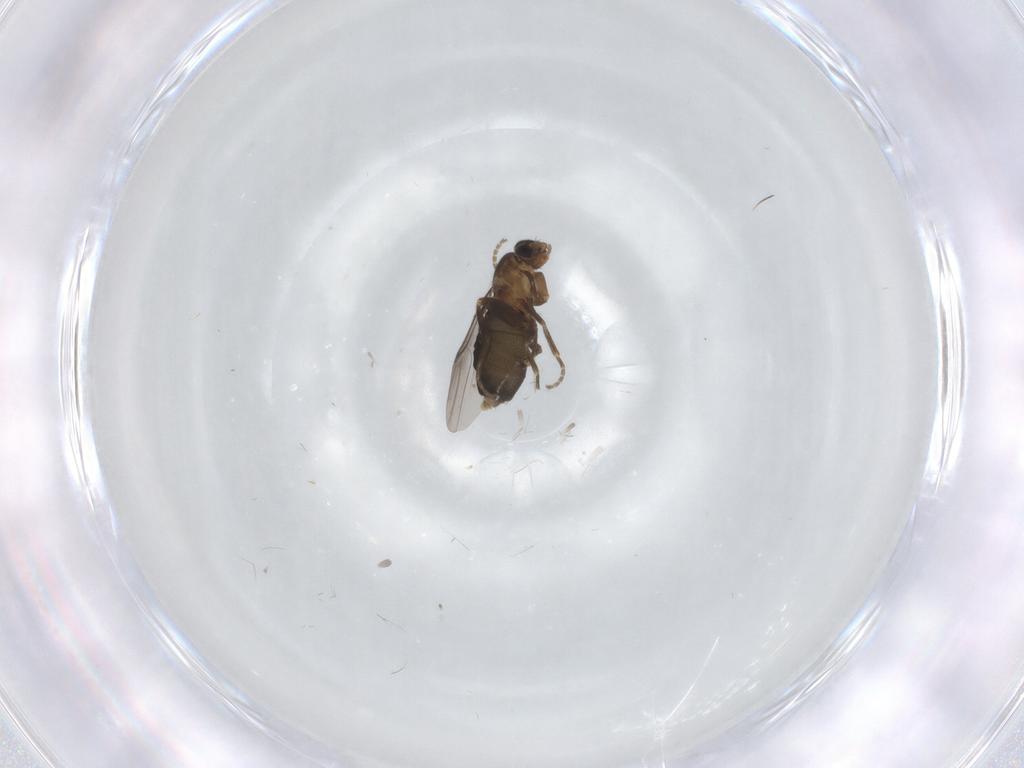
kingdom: Animalia
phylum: Arthropoda
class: Insecta
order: Diptera
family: Chironomidae
